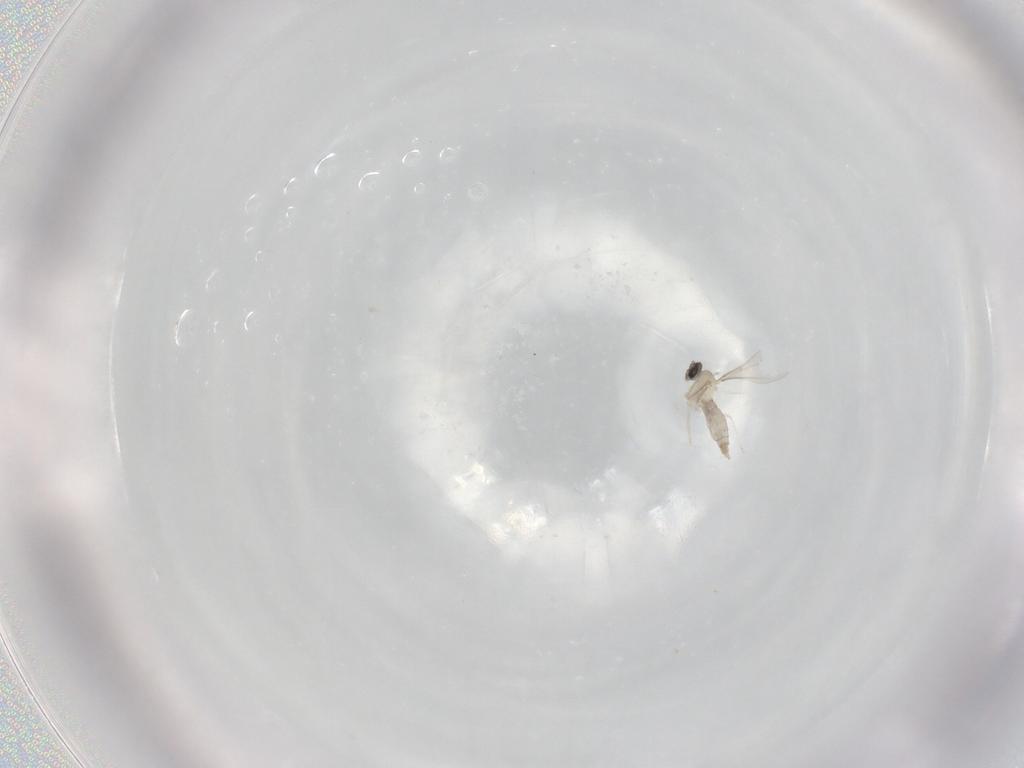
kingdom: Animalia
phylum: Arthropoda
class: Insecta
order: Diptera
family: Cecidomyiidae
